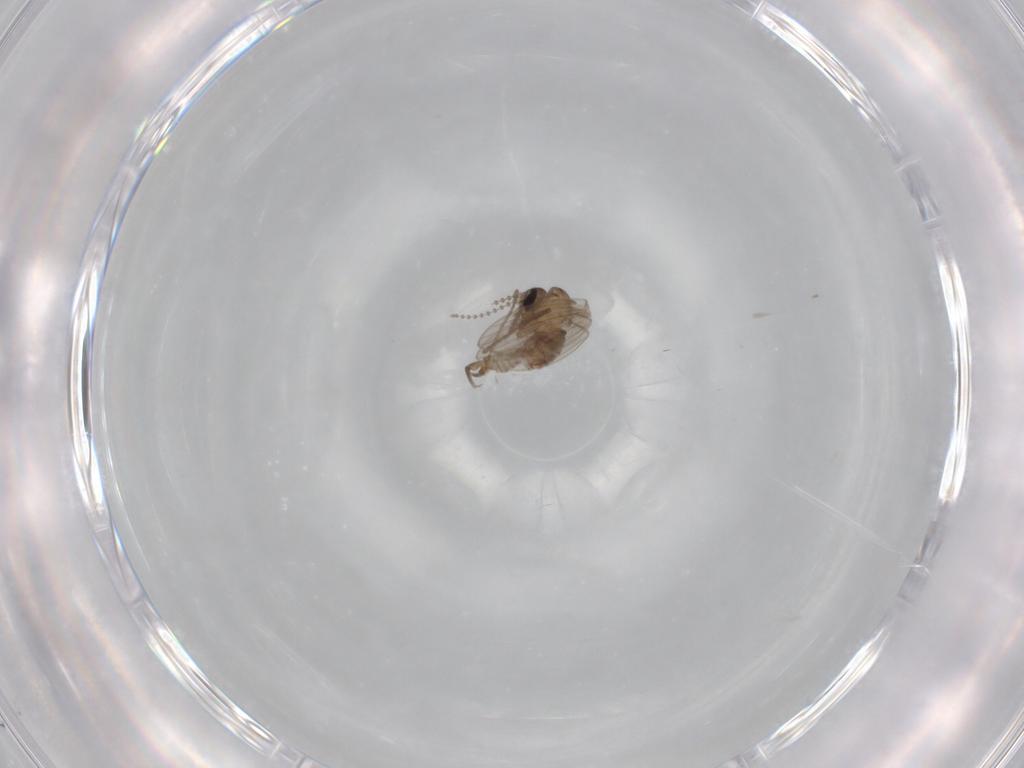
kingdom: Animalia
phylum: Arthropoda
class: Insecta
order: Diptera
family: Psychodidae
